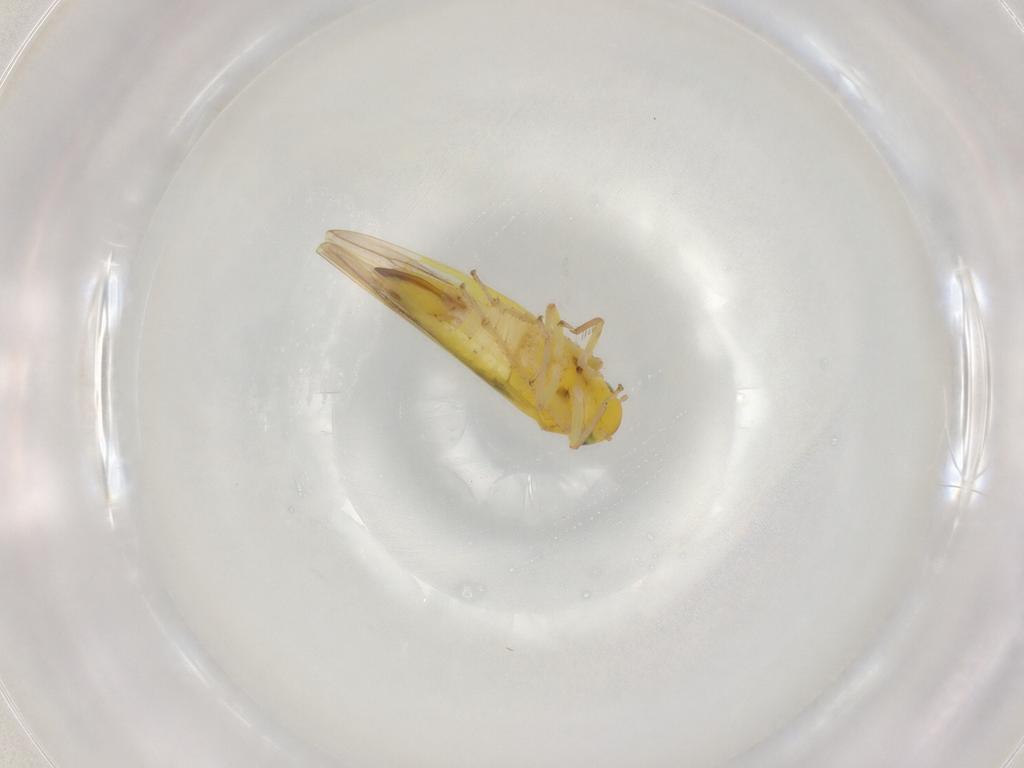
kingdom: Animalia
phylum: Arthropoda
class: Insecta
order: Hemiptera
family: Cicadellidae
